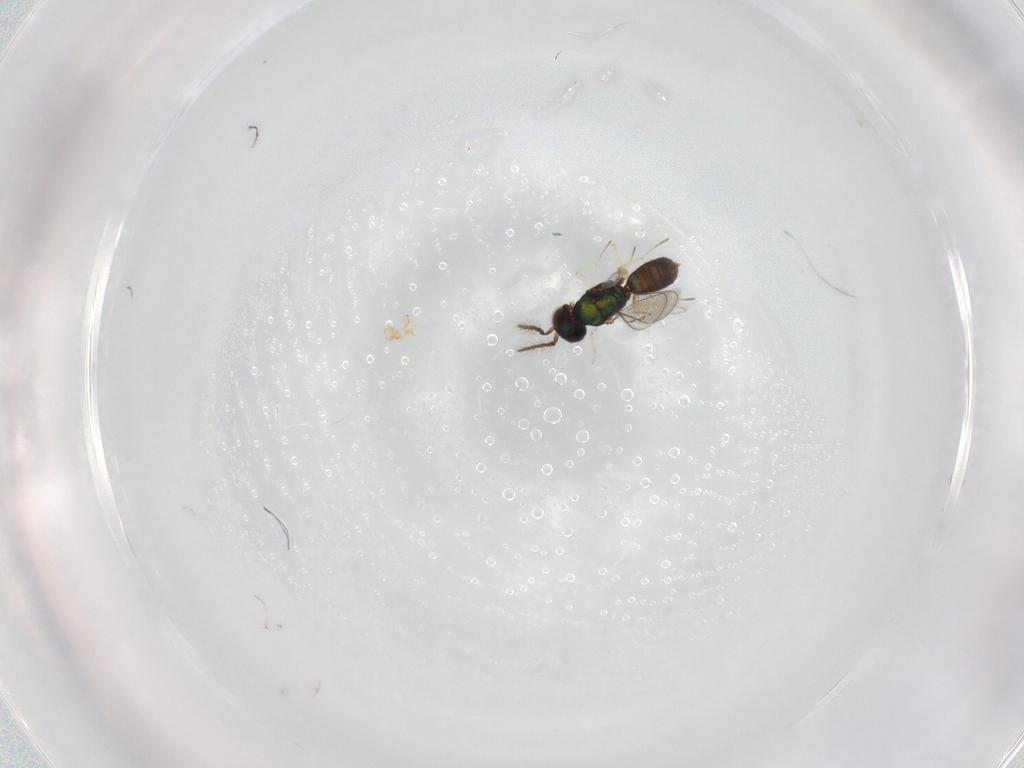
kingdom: Animalia
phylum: Arthropoda
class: Insecta
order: Hymenoptera
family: Eulophidae
